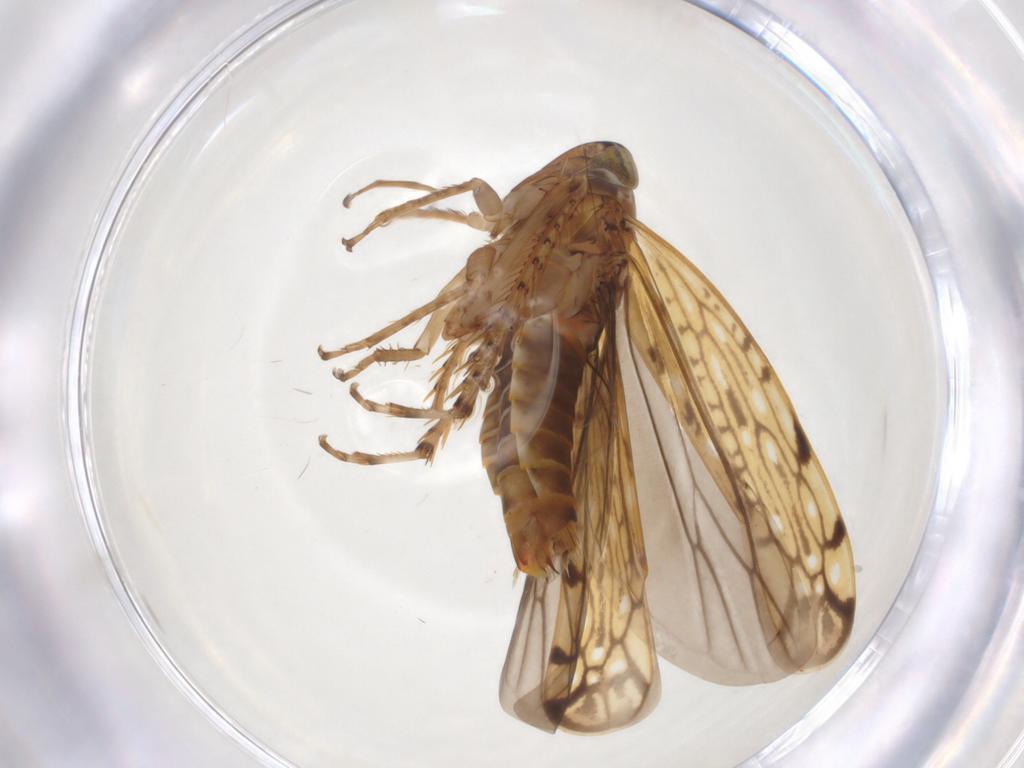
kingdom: Animalia
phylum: Arthropoda
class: Insecta
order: Hemiptera
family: Cicadellidae
